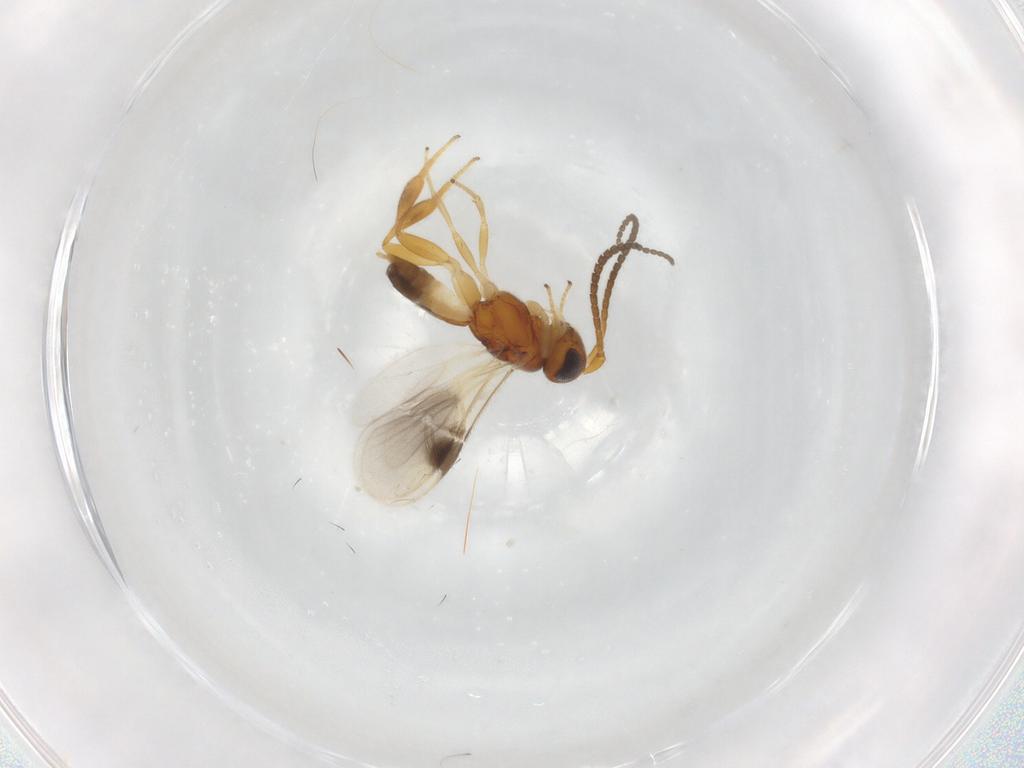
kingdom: Animalia
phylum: Arthropoda
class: Insecta
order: Hymenoptera
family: Braconidae
